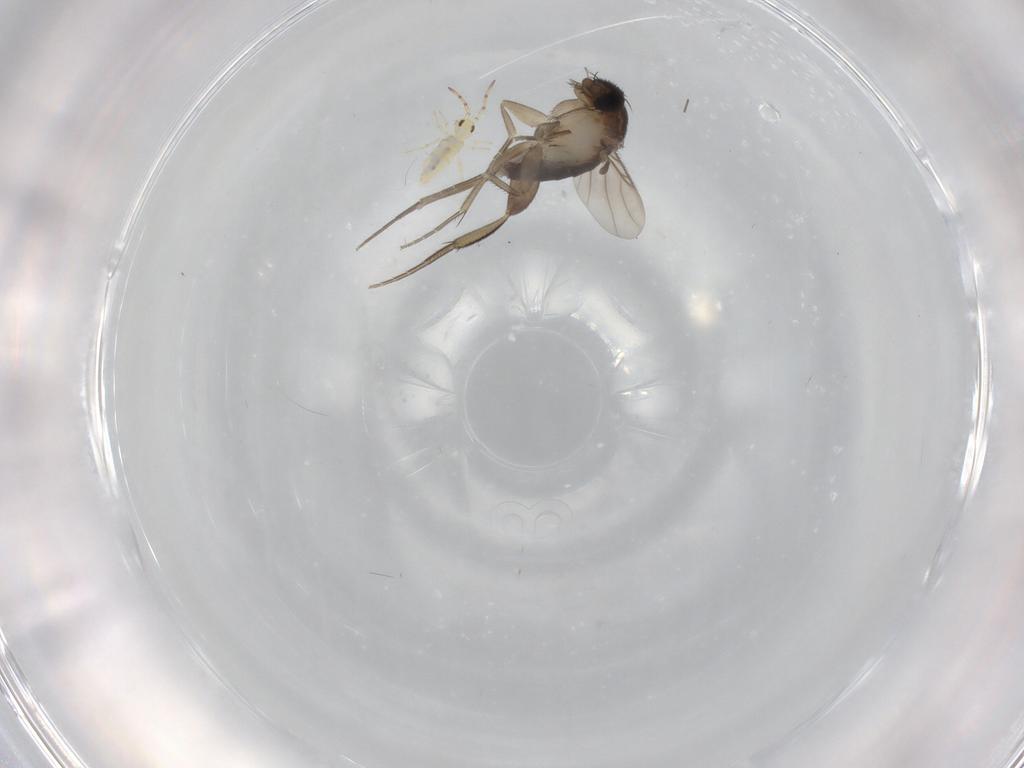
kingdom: Animalia
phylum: Arthropoda
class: Insecta
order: Diptera
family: Phoridae
